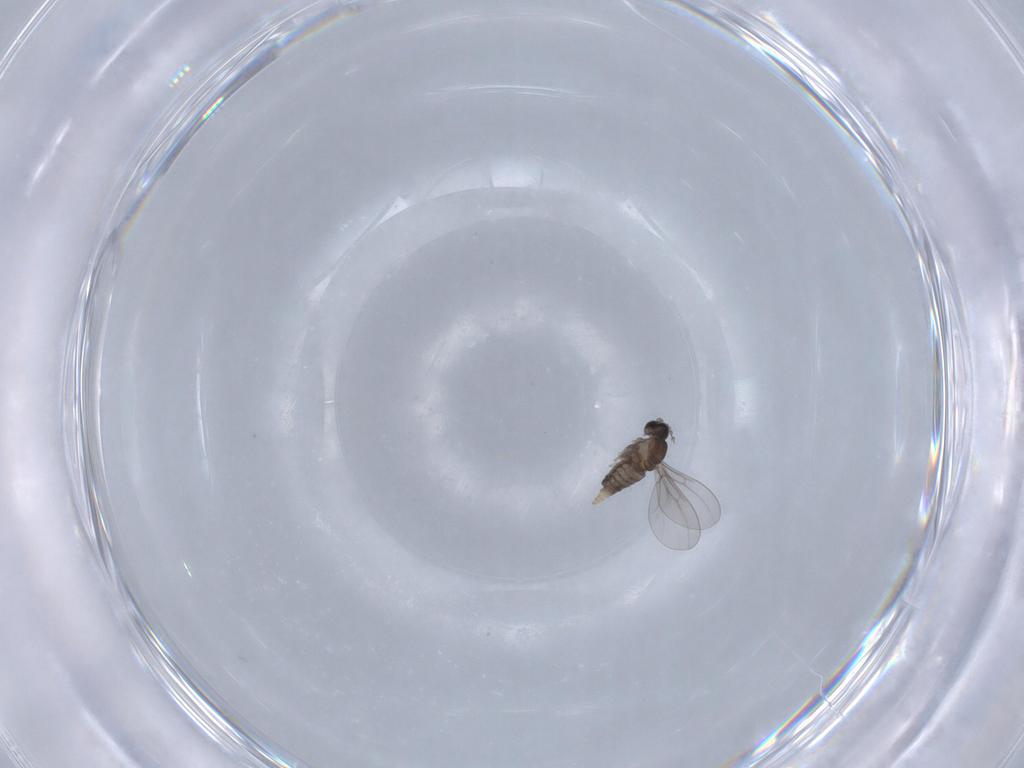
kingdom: Animalia
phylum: Arthropoda
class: Insecta
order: Diptera
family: Cecidomyiidae
